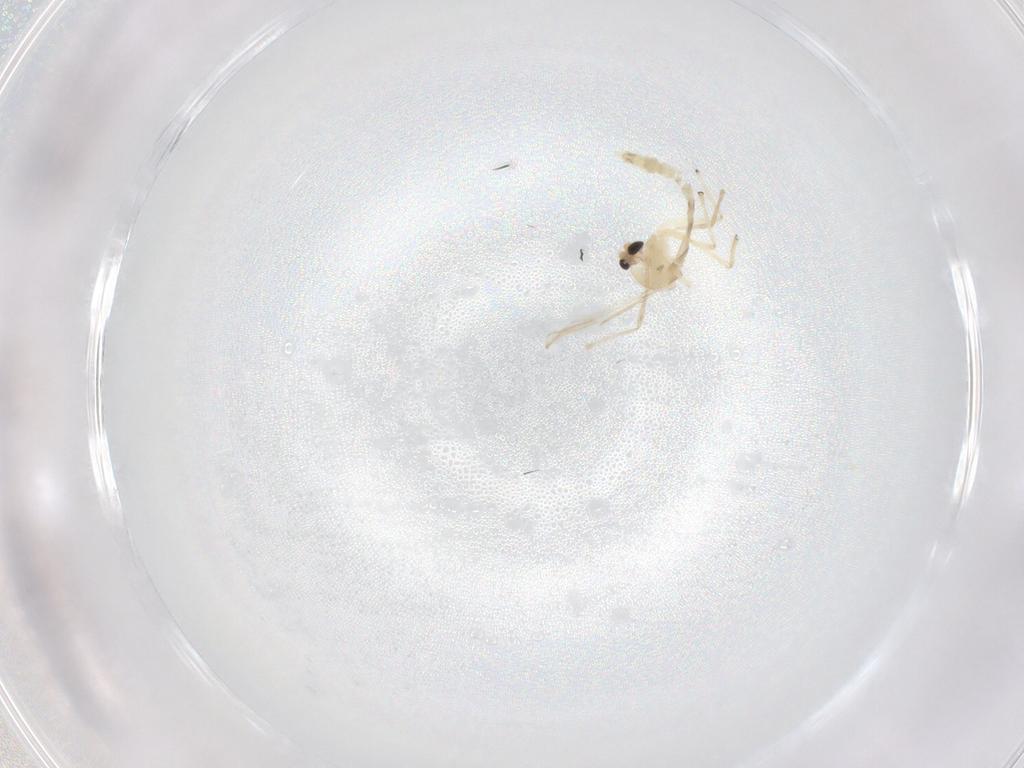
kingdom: Animalia
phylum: Arthropoda
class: Insecta
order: Diptera
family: Chironomidae
